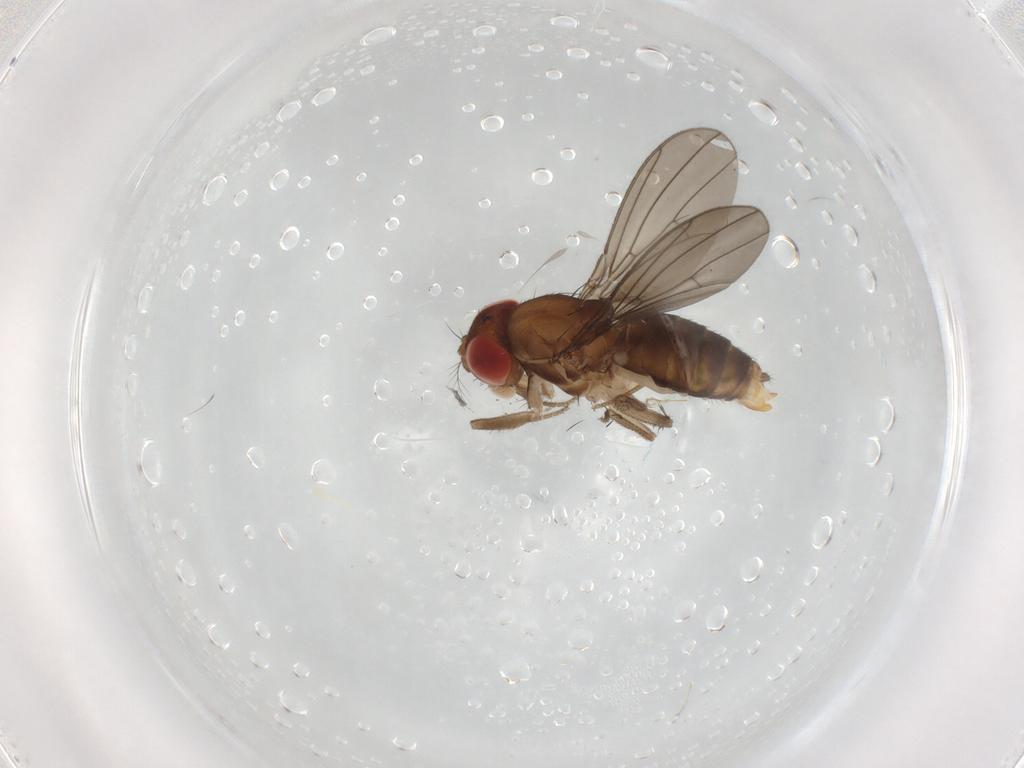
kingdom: Animalia
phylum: Arthropoda
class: Insecta
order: Diptera
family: Drosophilidae
